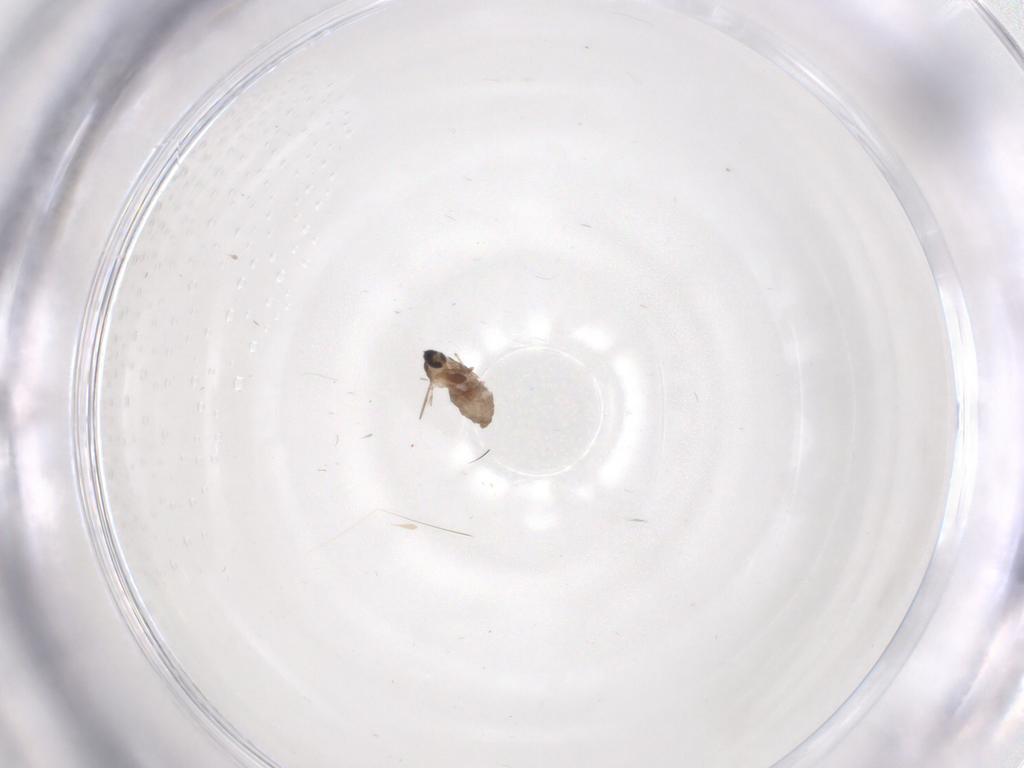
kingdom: Animalia
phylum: Arthropoda
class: Insecta
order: Diptera
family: Cecidomyiidae
